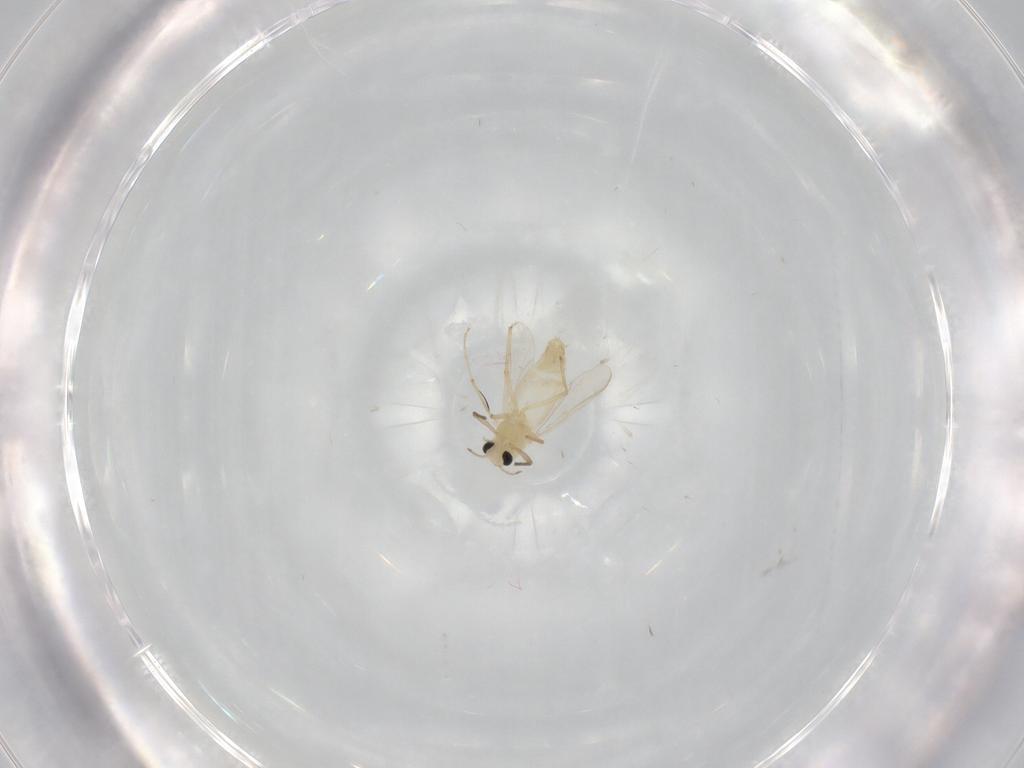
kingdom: Animalia
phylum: Arthropoda
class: Insecta
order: Diptera
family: Chironomidae
